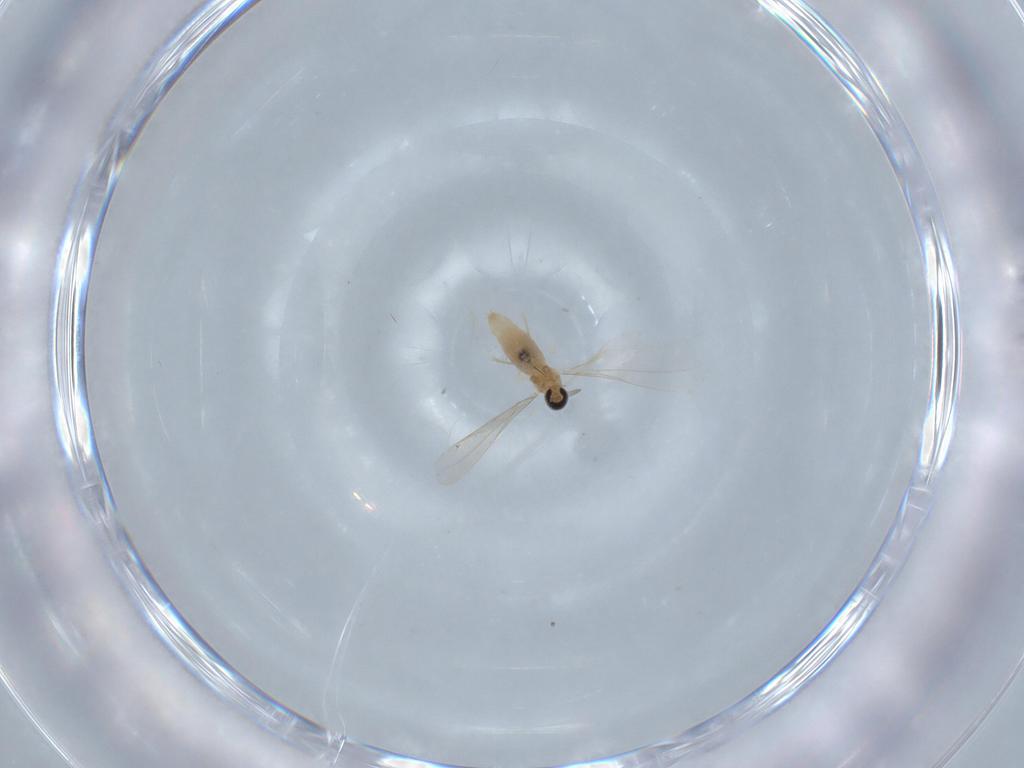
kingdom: Animalia
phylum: Arthropoda
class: Insecta
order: Diptera
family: Cecidomyiidae
